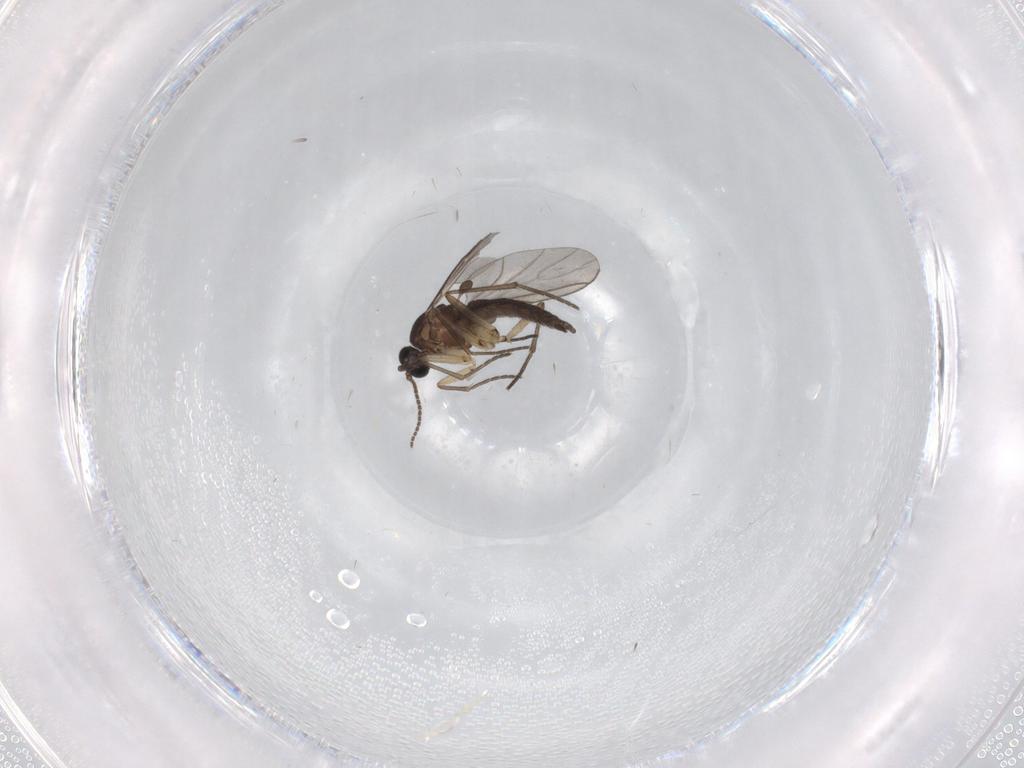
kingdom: Animalia
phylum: Arthropoda
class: Insecta
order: Diptera
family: Sciaridae
